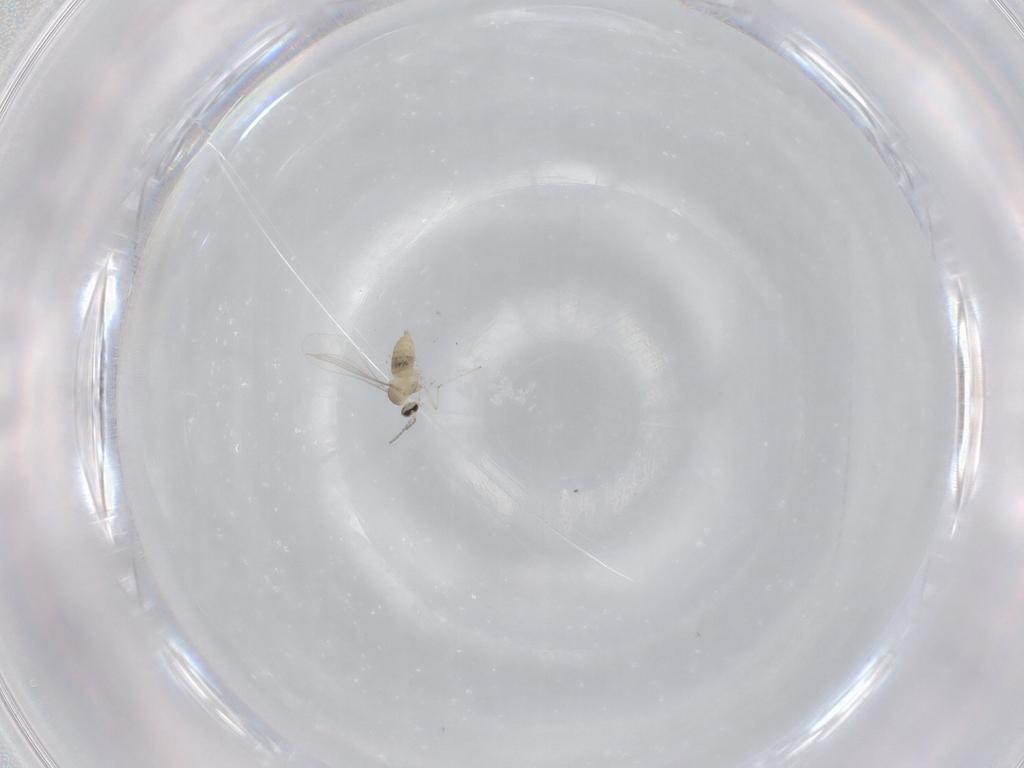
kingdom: Animalia
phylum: Arthropoda
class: Insecta
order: Diptera
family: Cecidomyiidae
